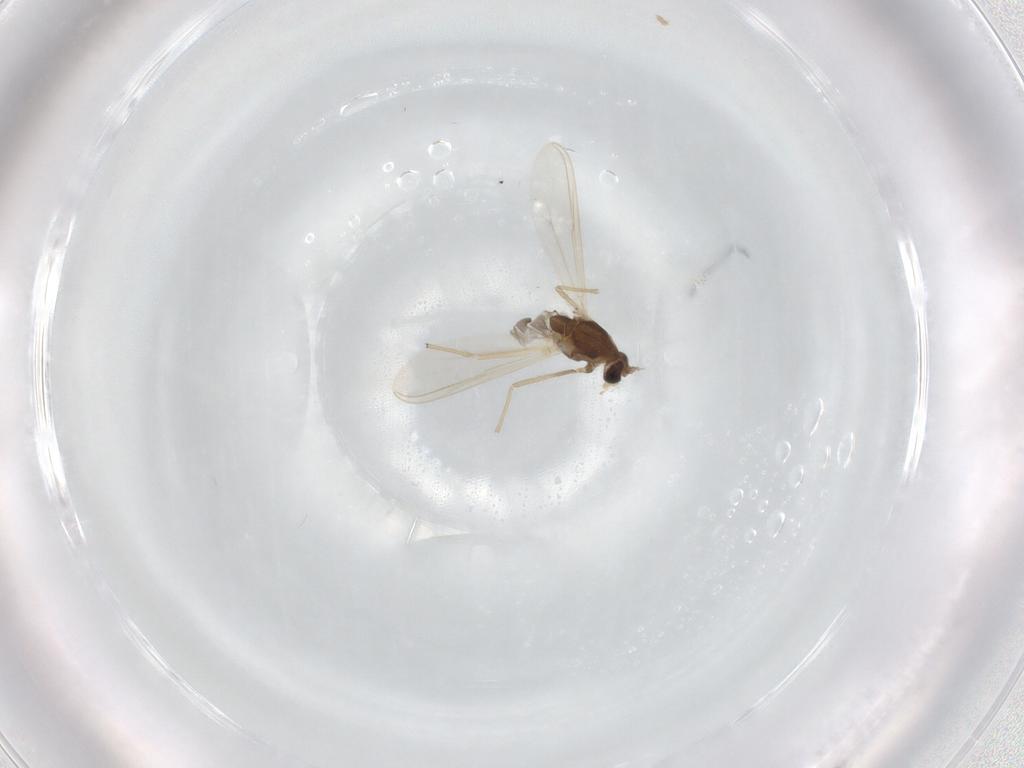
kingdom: Animalia
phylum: Arthropoda
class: Insecta
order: Diptera
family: Chironomidae
